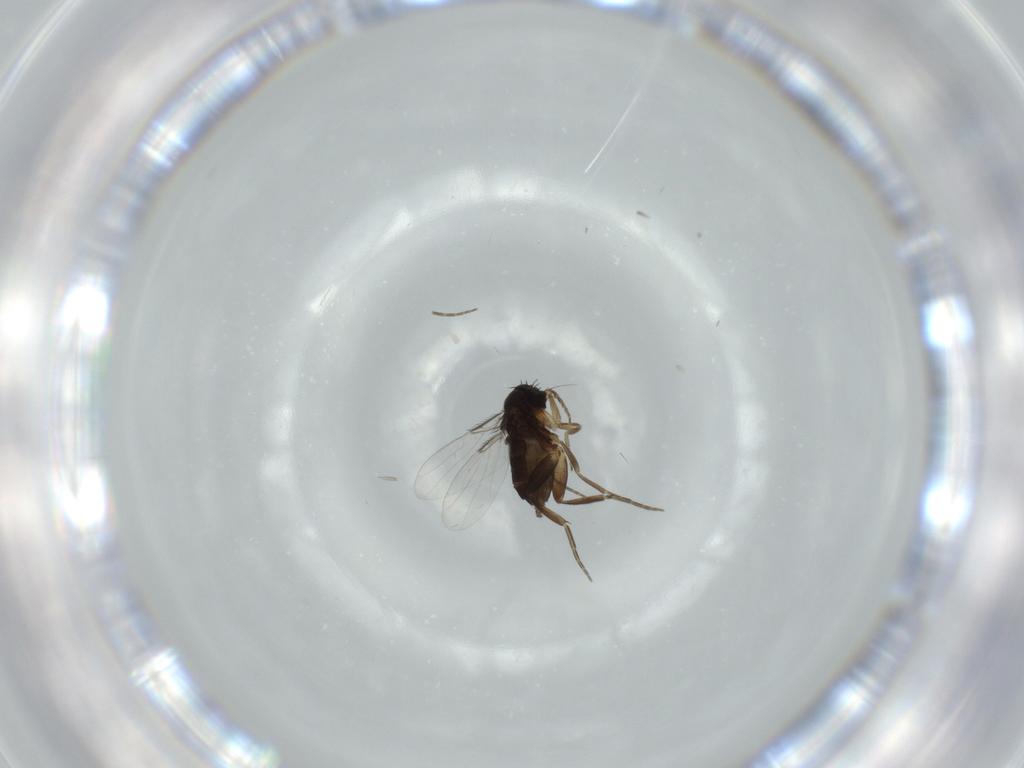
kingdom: Animalia
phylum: Arthropoda
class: Insecta
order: Diptera
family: Phoridae
